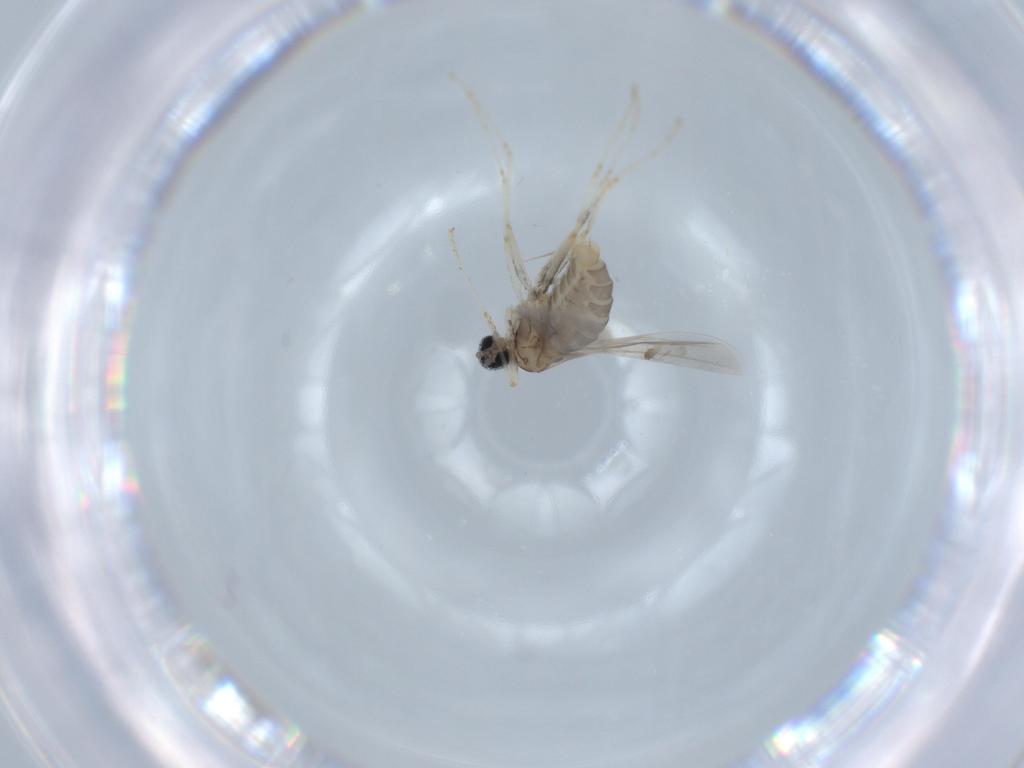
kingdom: Animalia
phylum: Arthropoda
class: Insecta
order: Diptera
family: Cecidomyiidae
